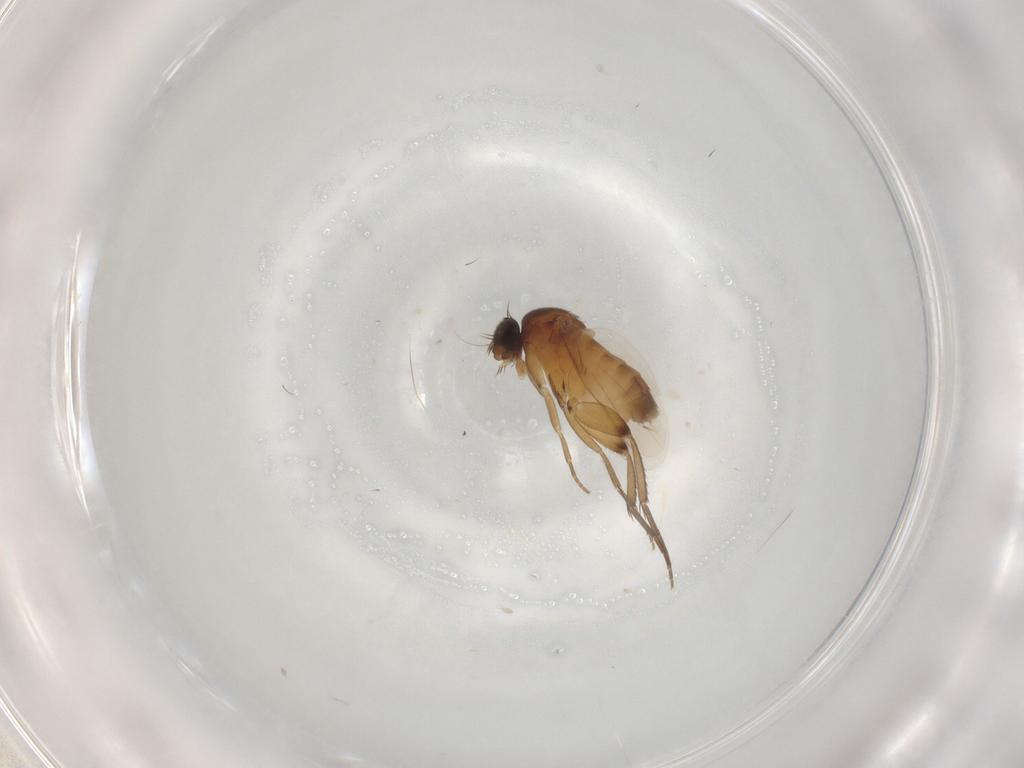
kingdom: Animalia
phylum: Arthropoda
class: Insecta
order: Diptera
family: Phoridae
